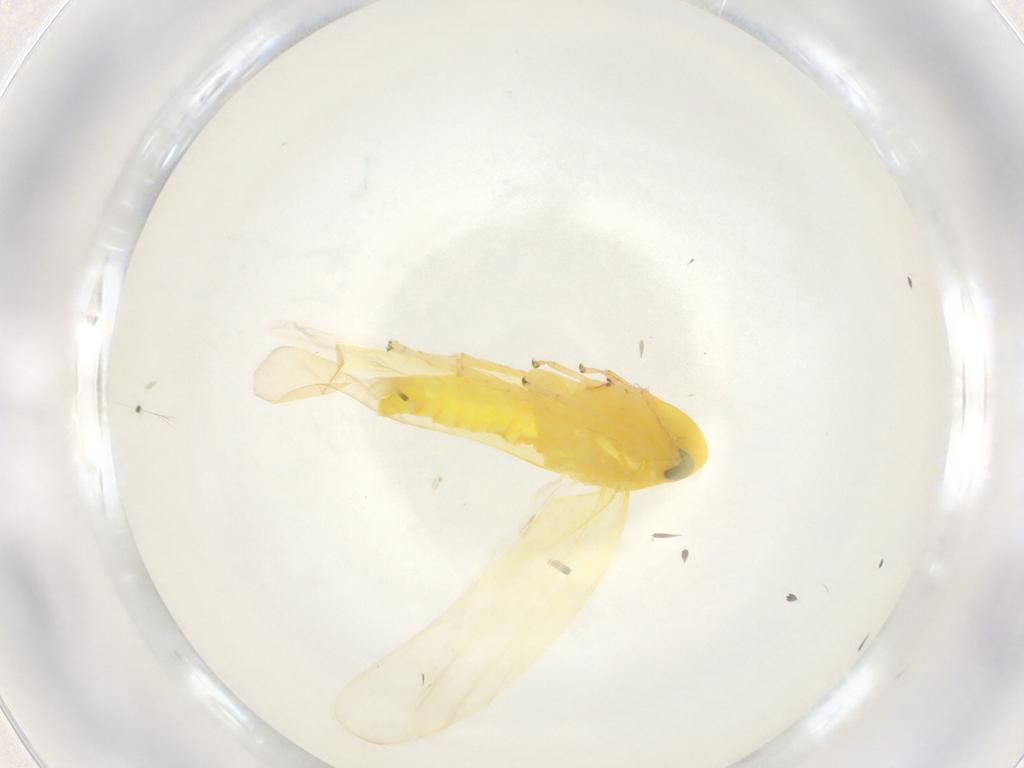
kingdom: Animalia
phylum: Arthropoda
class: Insecta
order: Hemiptera
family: Cicadellidae
